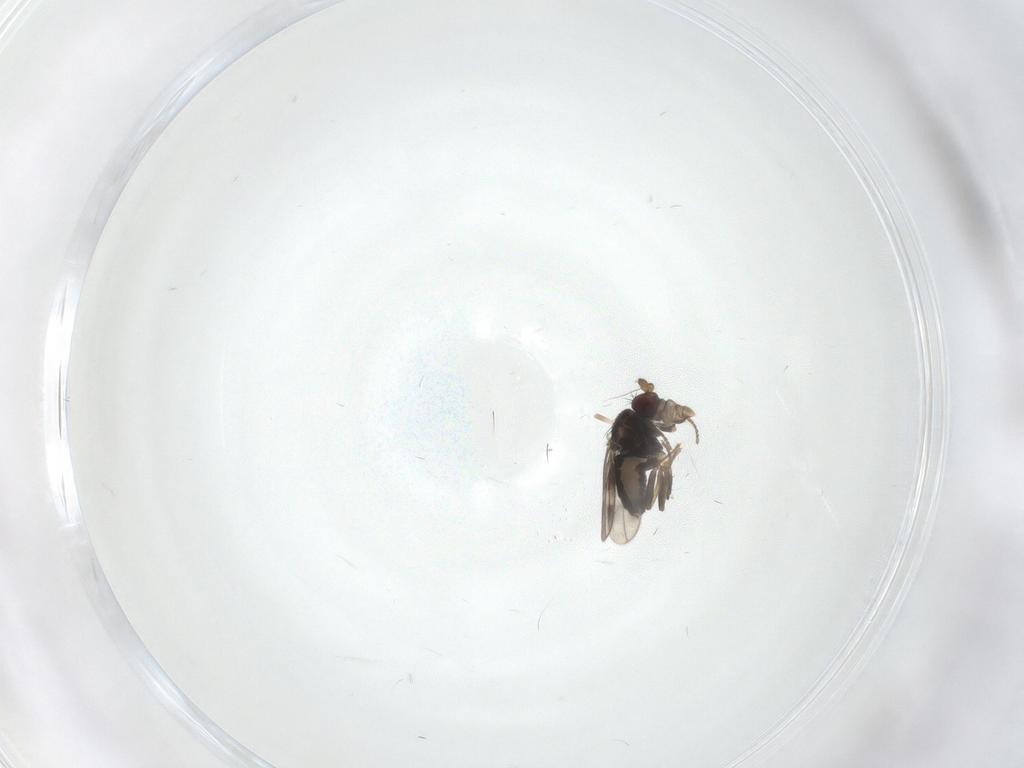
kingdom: Animalia
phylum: Arthropoda
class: Insecta
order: Diptera
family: Sphaeroceridae
